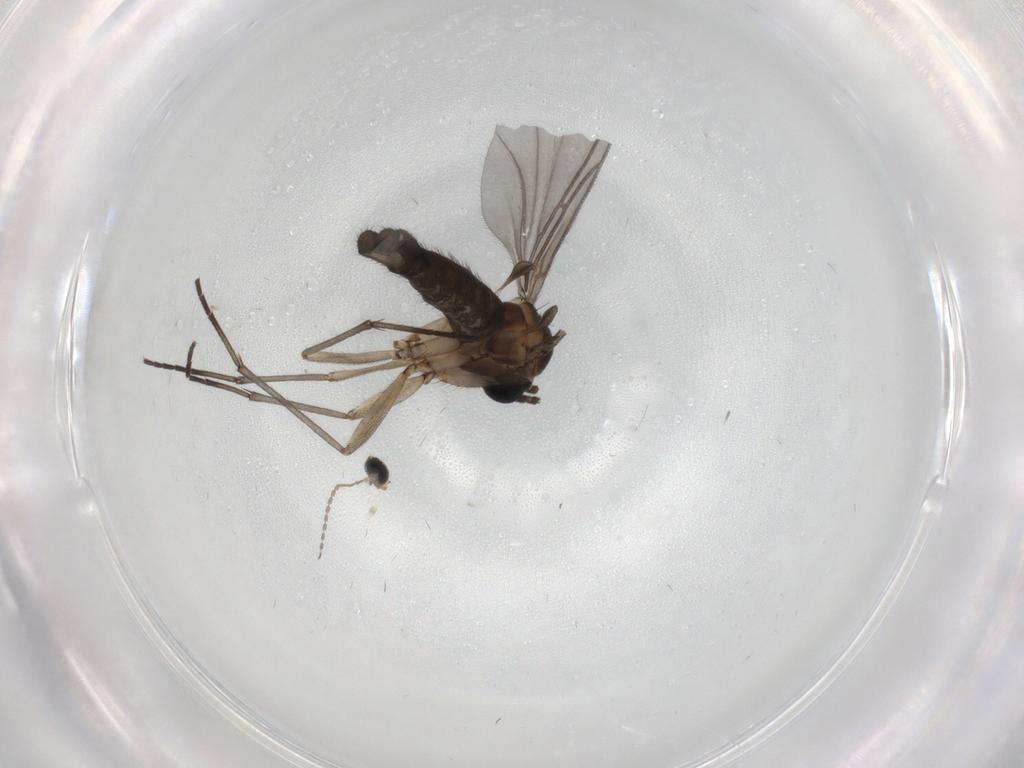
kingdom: Animalia
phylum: Arthropoda
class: Insecta
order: Diptera
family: Sciaridae
